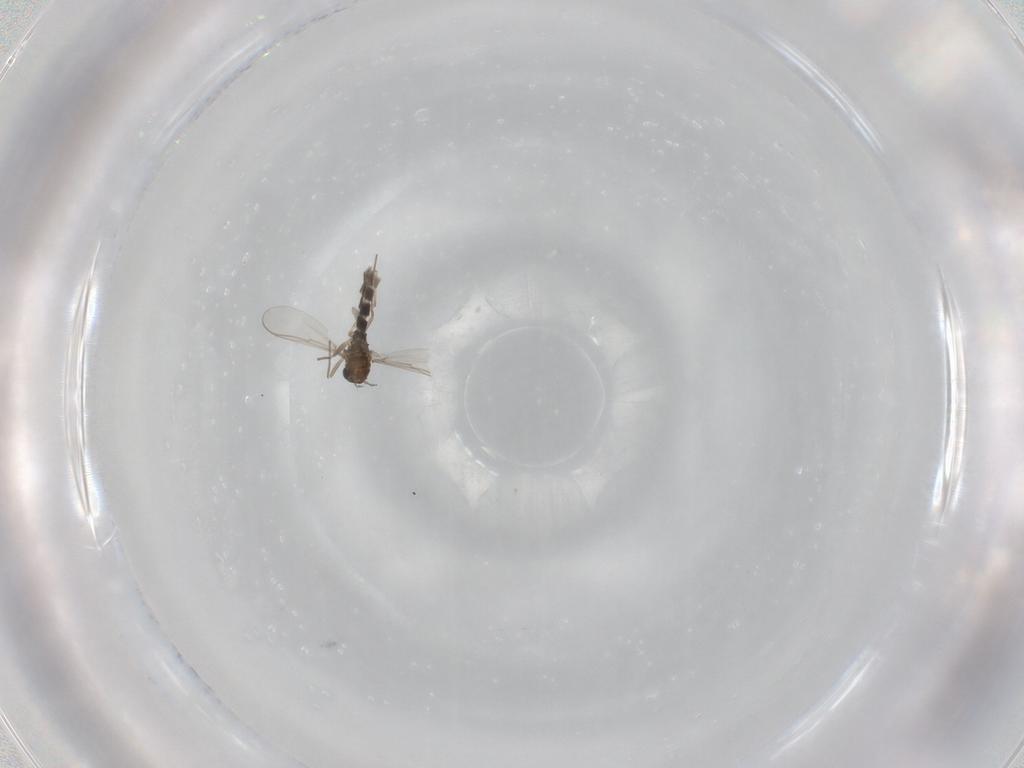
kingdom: Animalia
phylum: Arthropoda
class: Insecta
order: Diptera
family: Chironomidae
